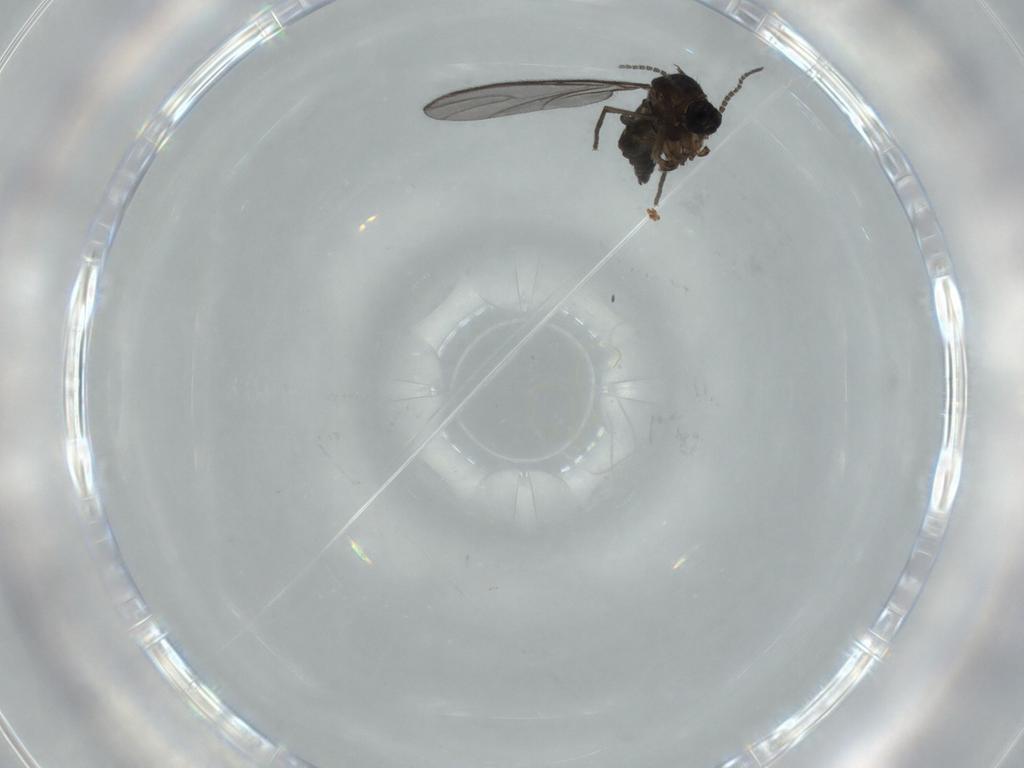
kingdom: Animalia
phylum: Arthropoda
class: Insecta
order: Diptera
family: Sciaridae
